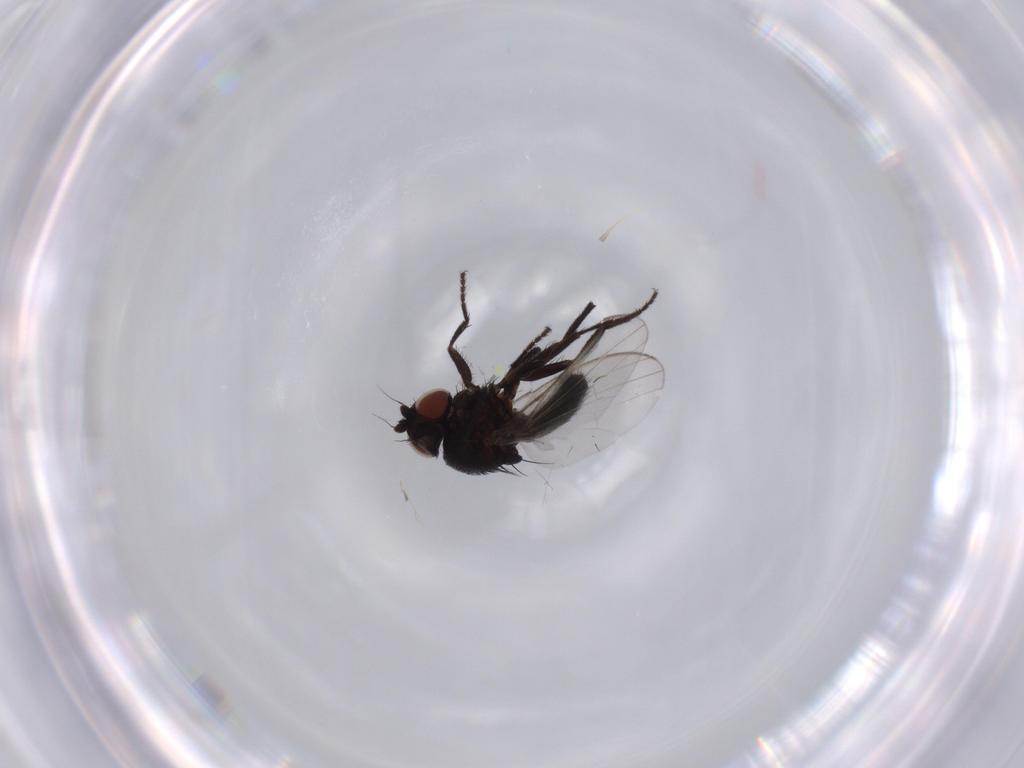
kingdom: Animalia
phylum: Arthropoda
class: Insecta
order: Diptera
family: Milichiidae
